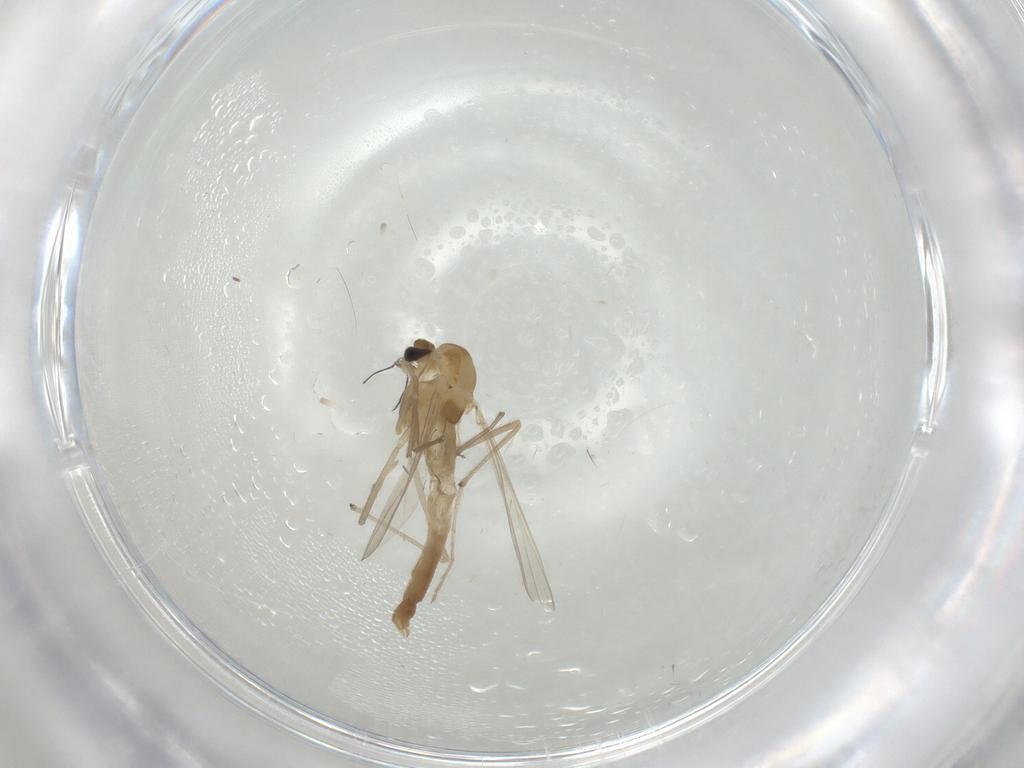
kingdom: Animalia
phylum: Arthropoda
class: Insecta
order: Diptera
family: Chironomidae
